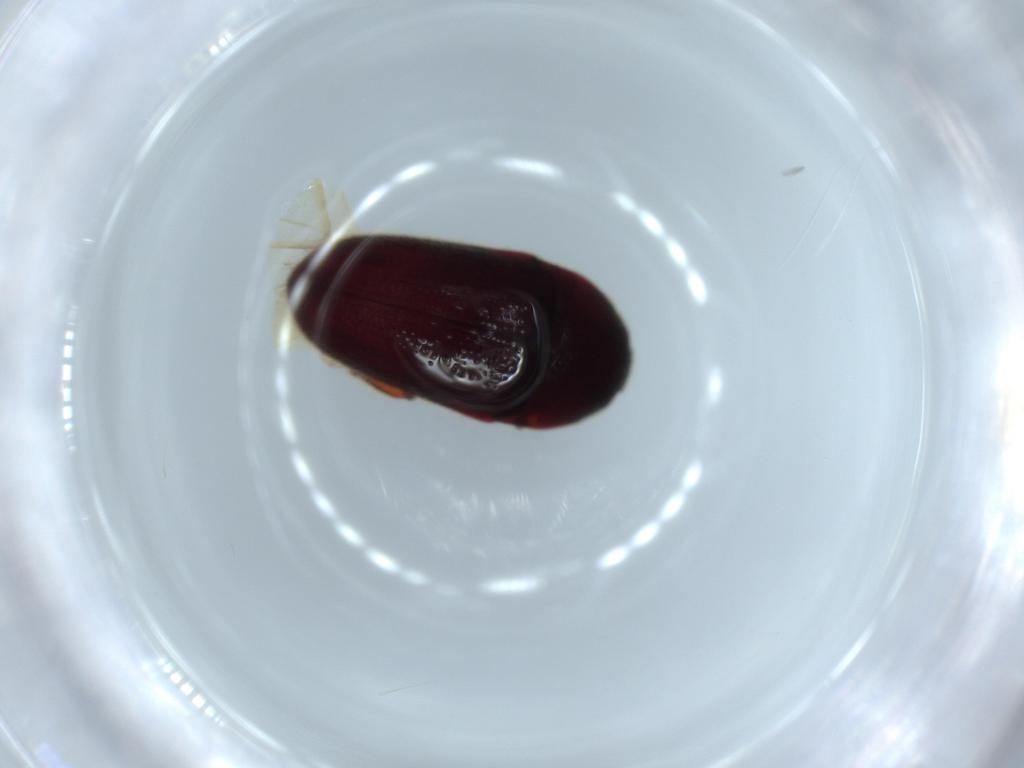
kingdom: Animalia
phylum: Arthropoda
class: Insecta
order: Coleoptera
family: Throscidae
